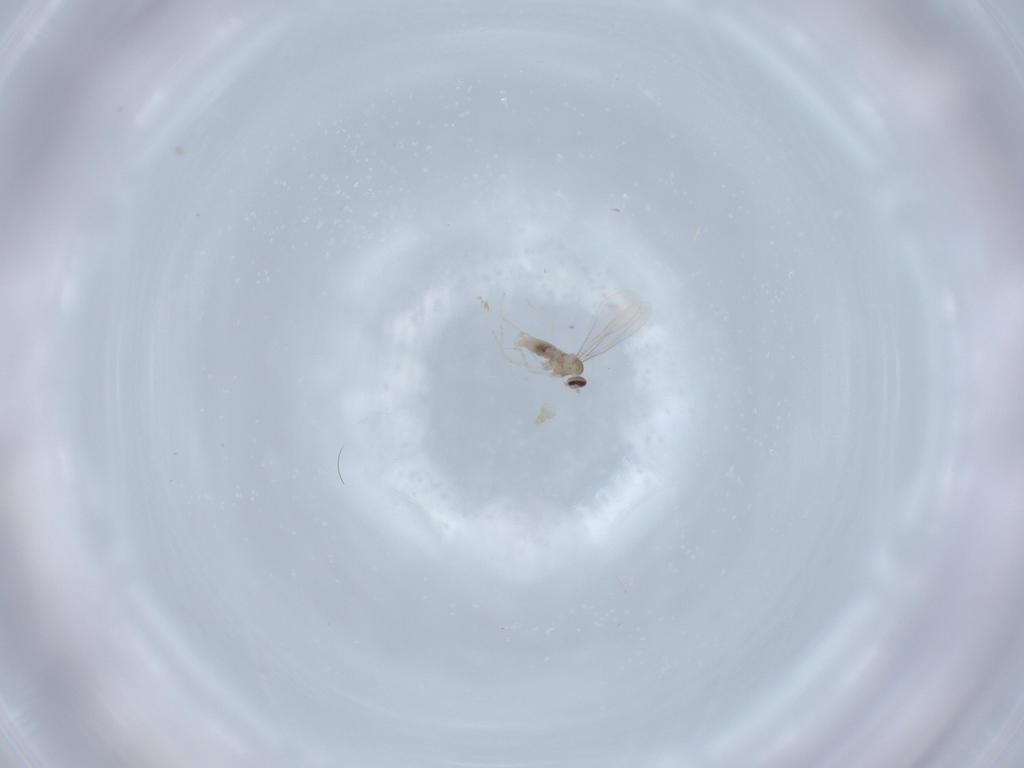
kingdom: Animalia
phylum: Arthropoda
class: Insecta
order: Diptera
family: Cecidomyiidae
